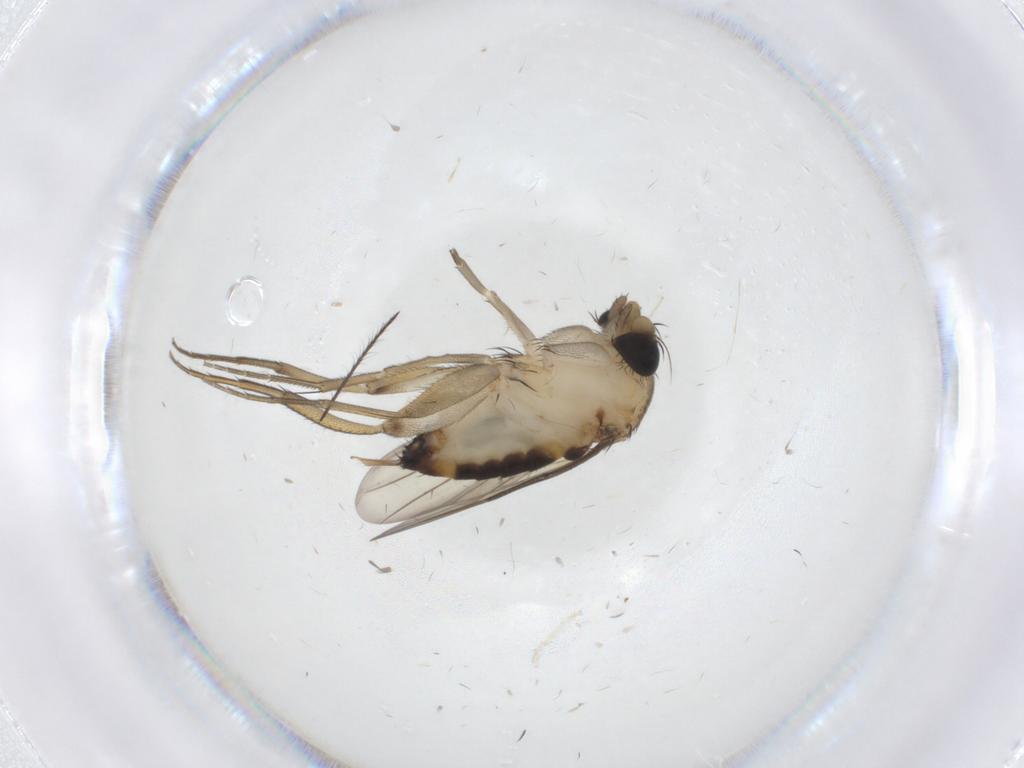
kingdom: Animalia
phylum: Arthropoda
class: Insecta
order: Diptera
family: Phoridae
